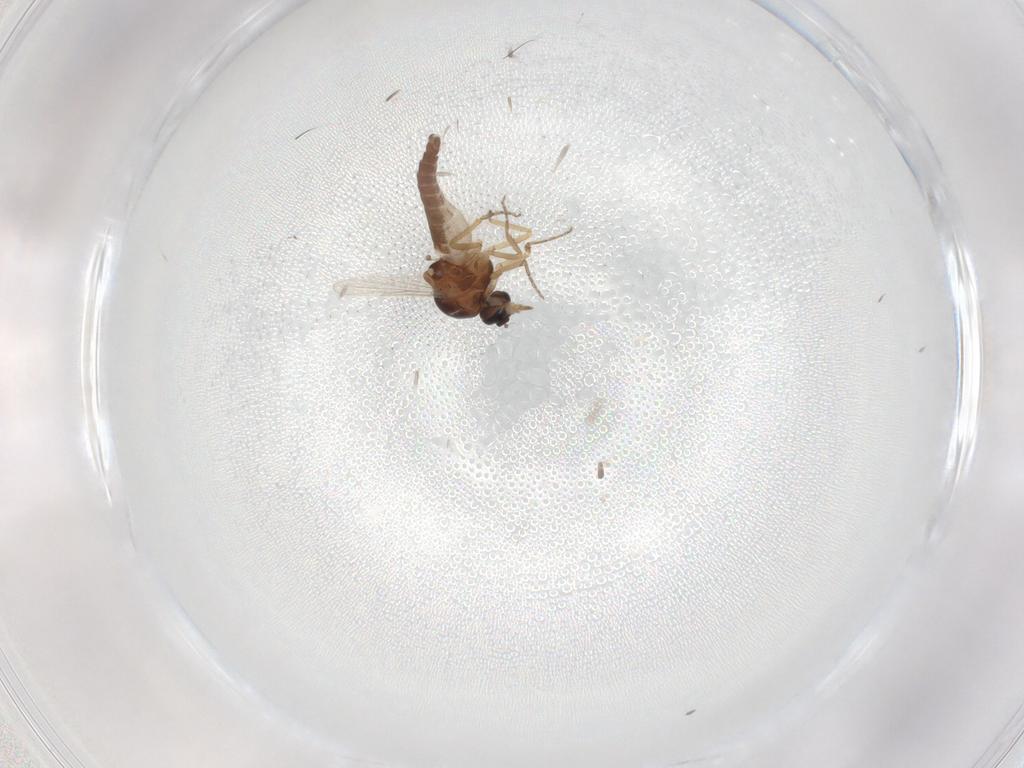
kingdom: Animalia
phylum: Arthropoda
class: Insecta
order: Diptera
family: Ceratopogonidae
